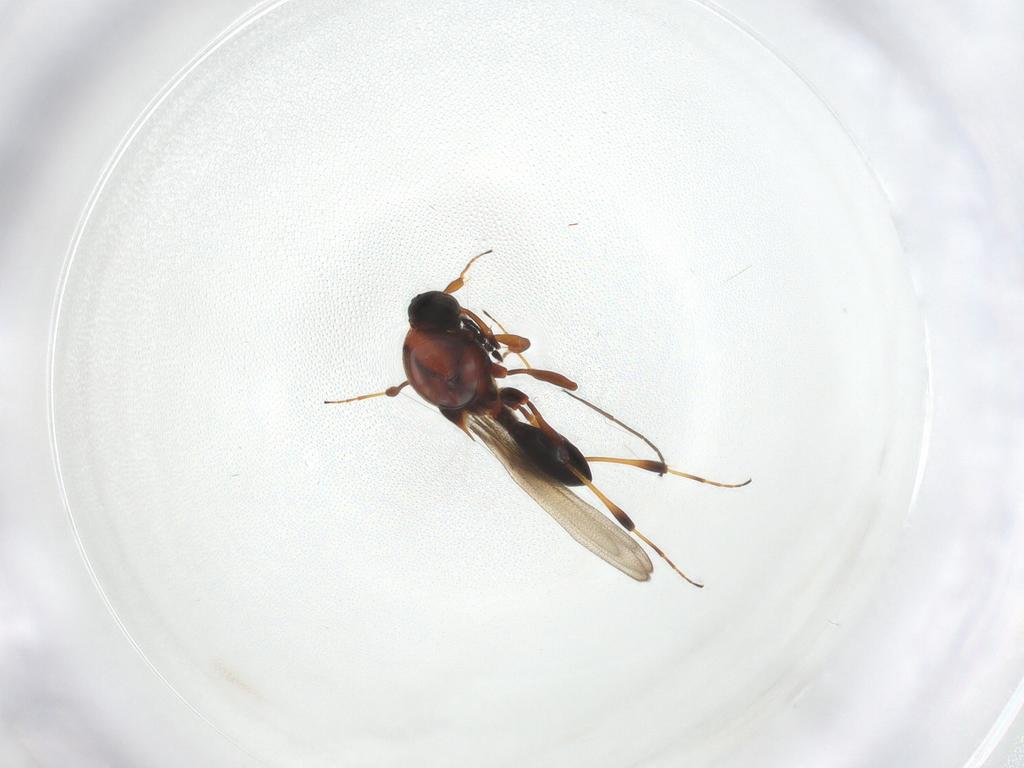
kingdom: Animalia
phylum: Arthropoda
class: Insecta
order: Hymenoptera
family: Platygastridae
